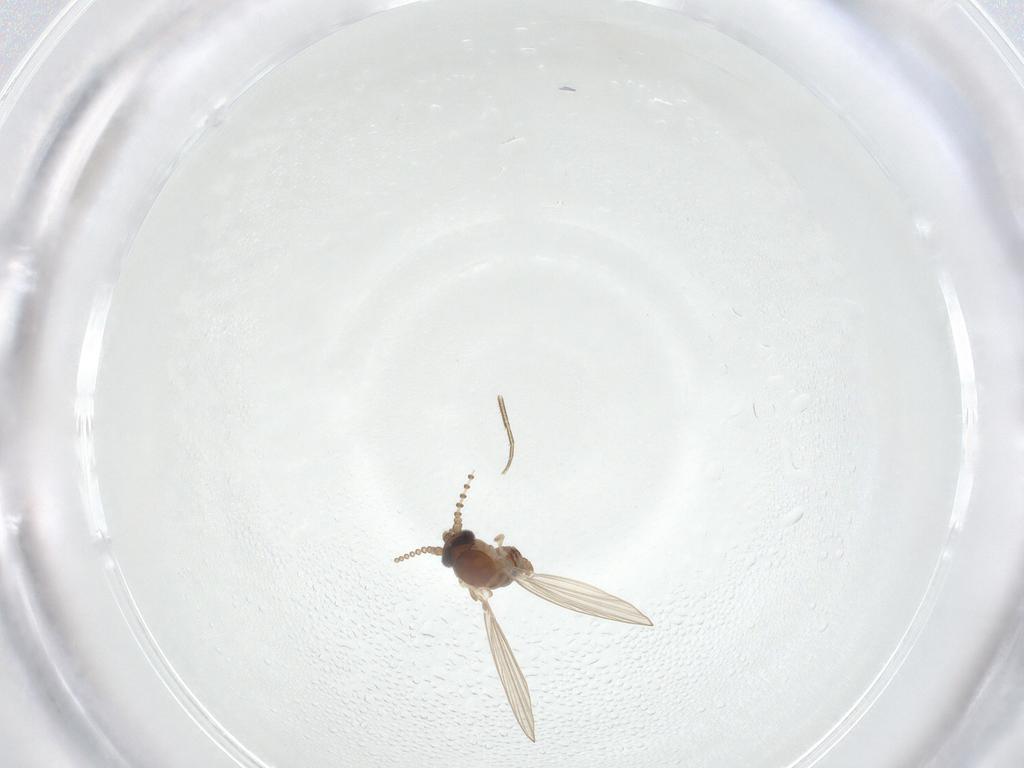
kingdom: Animalia
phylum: Arthropoda
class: Insecta
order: Diptera
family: Psychodidae
